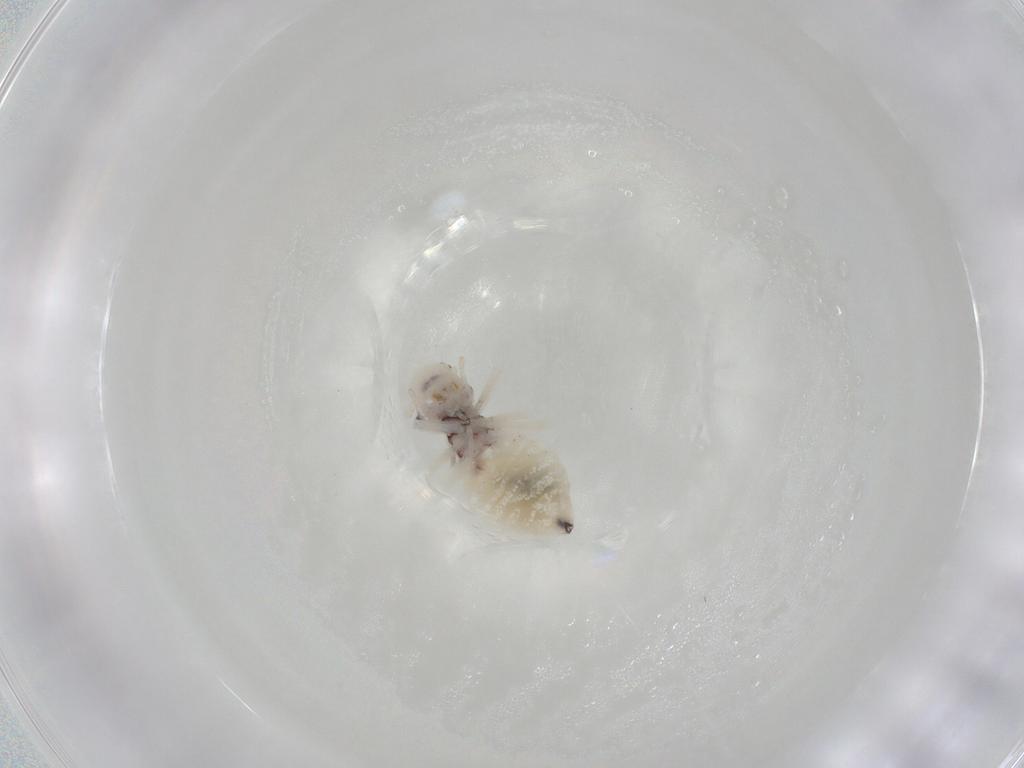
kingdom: Animalia
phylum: Arthropoda
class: Insecta
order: Psocodea
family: Amphipsocidae
